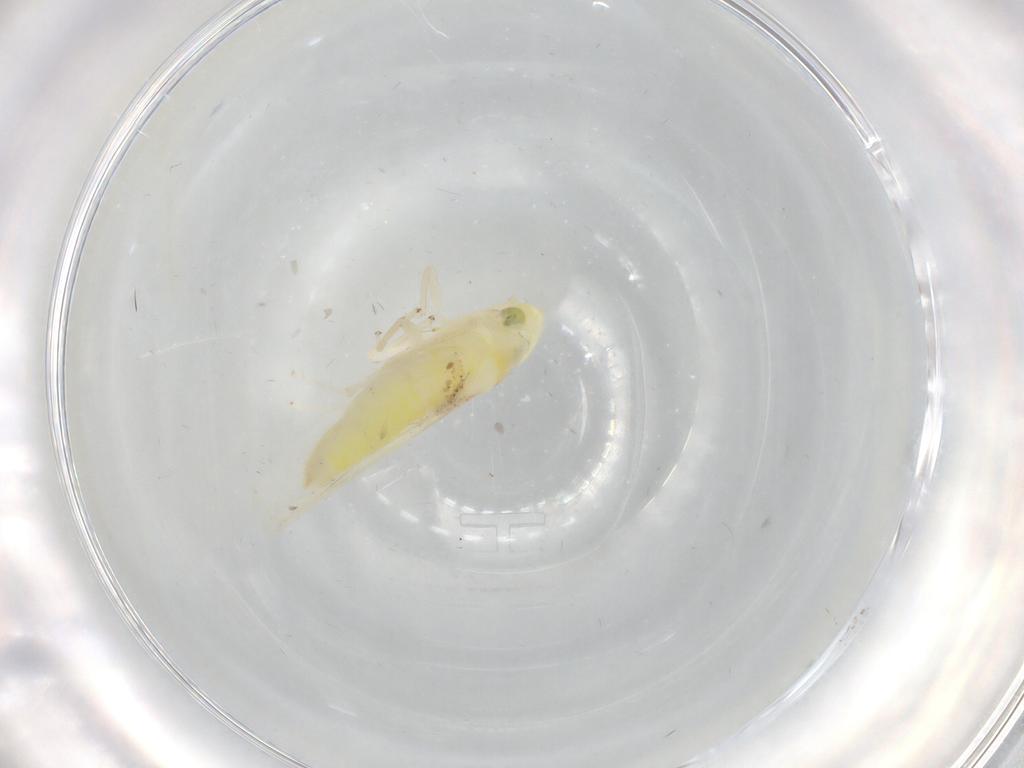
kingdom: Animalia
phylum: Arthropoda
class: Insecta
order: Hemiptera
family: Cicadellidae
